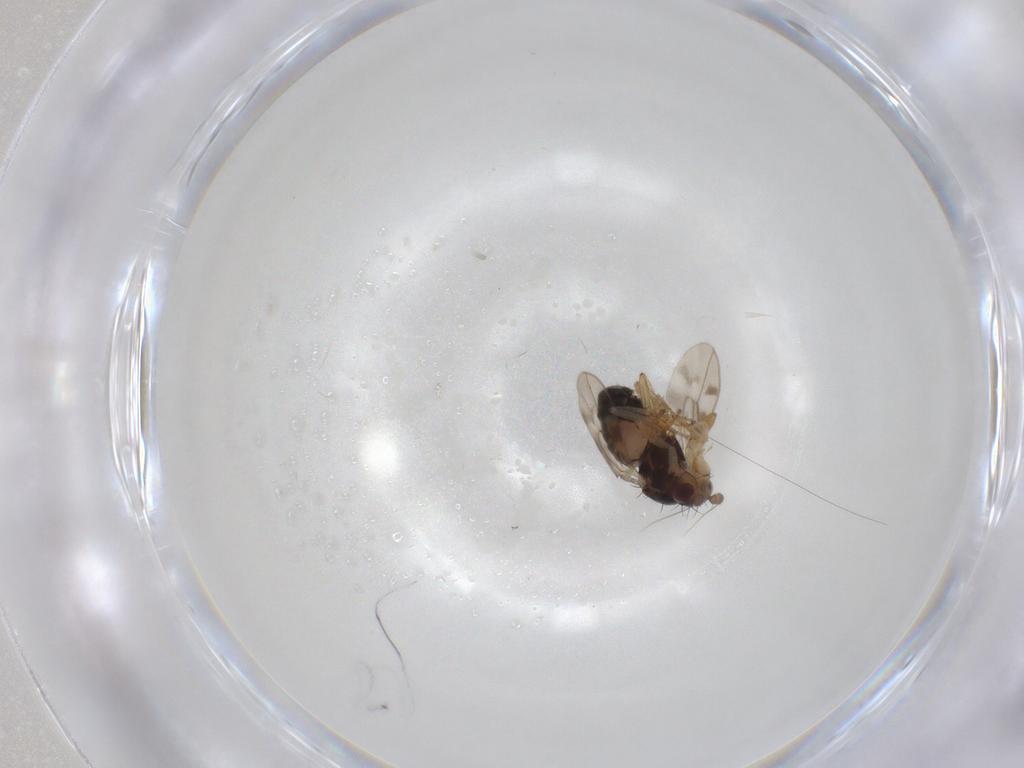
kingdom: Animalia
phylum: Arthropoda
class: Insecta
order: Diptera
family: Sphaeroceridae
